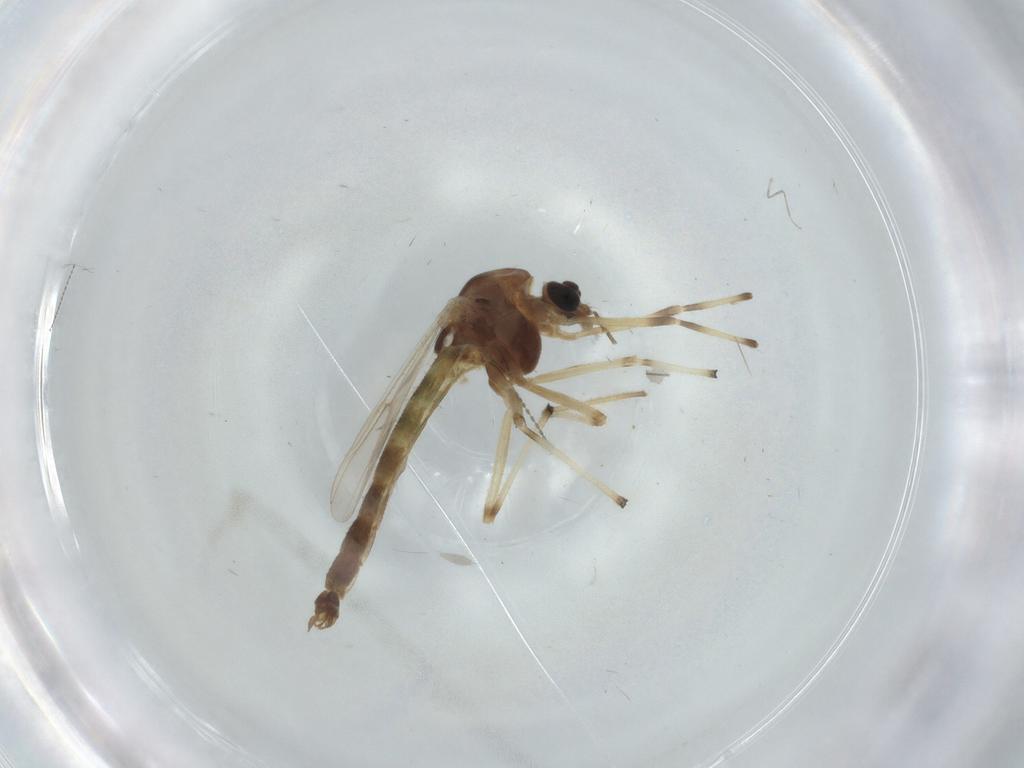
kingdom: Animalia
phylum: Arthropoda
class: Insecta
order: Diptera
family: Chironomidae
